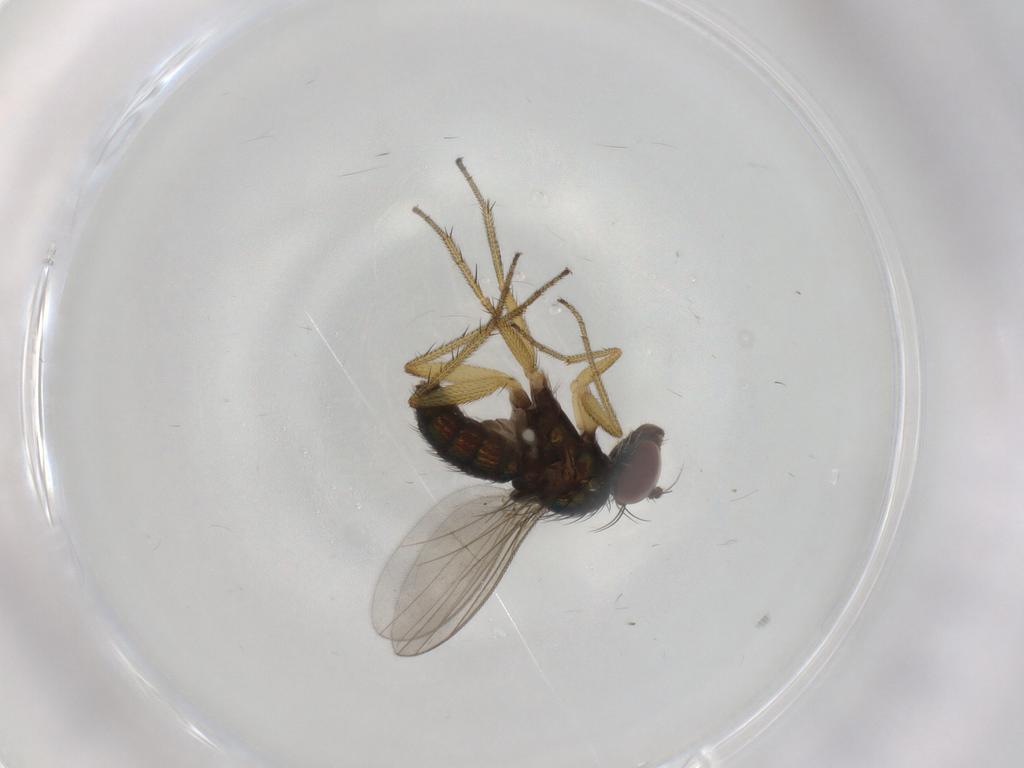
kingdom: Animalia
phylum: Arthropoda
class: Insecta
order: Diptera
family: Dolichopodidae
